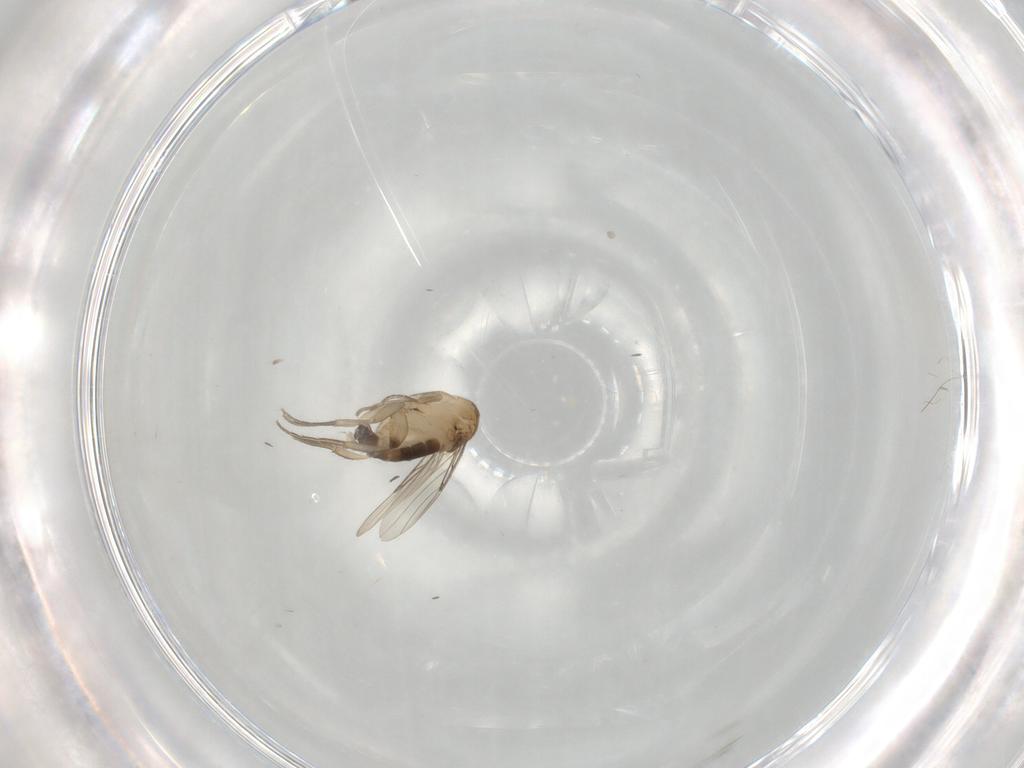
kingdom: Animalia
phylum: Arthropoda
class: Insecta
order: Diptera
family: Phoridae
